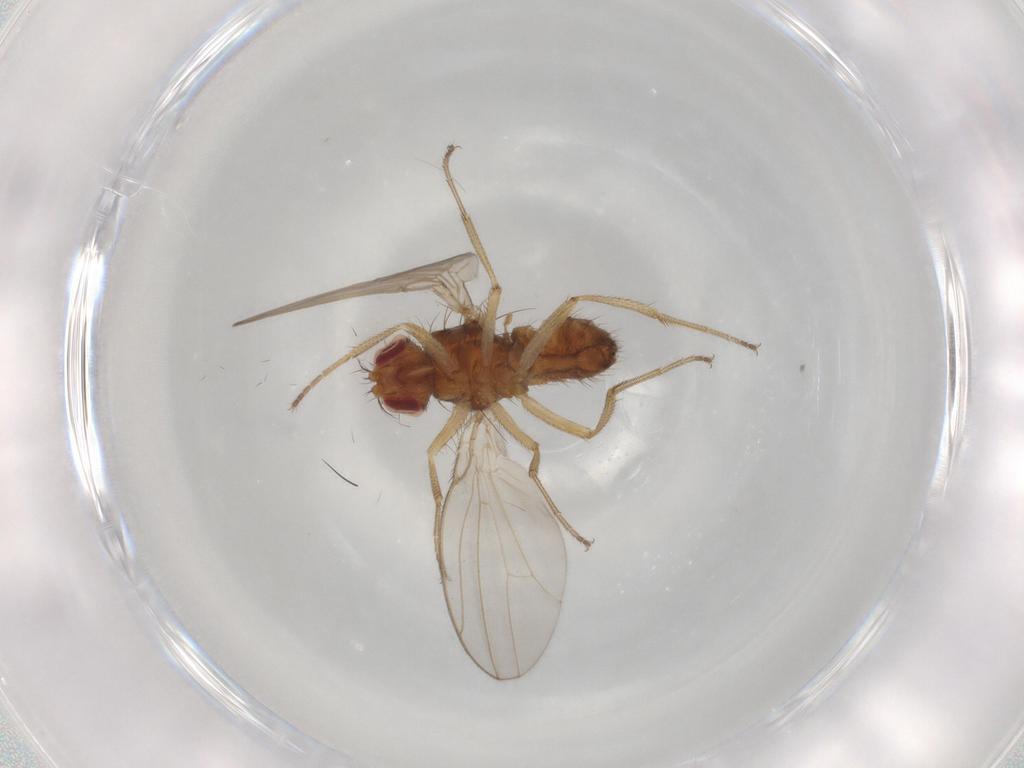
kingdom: Animalia
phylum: Arthropoda
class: Insecta
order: Diptera
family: Drosophilidae
